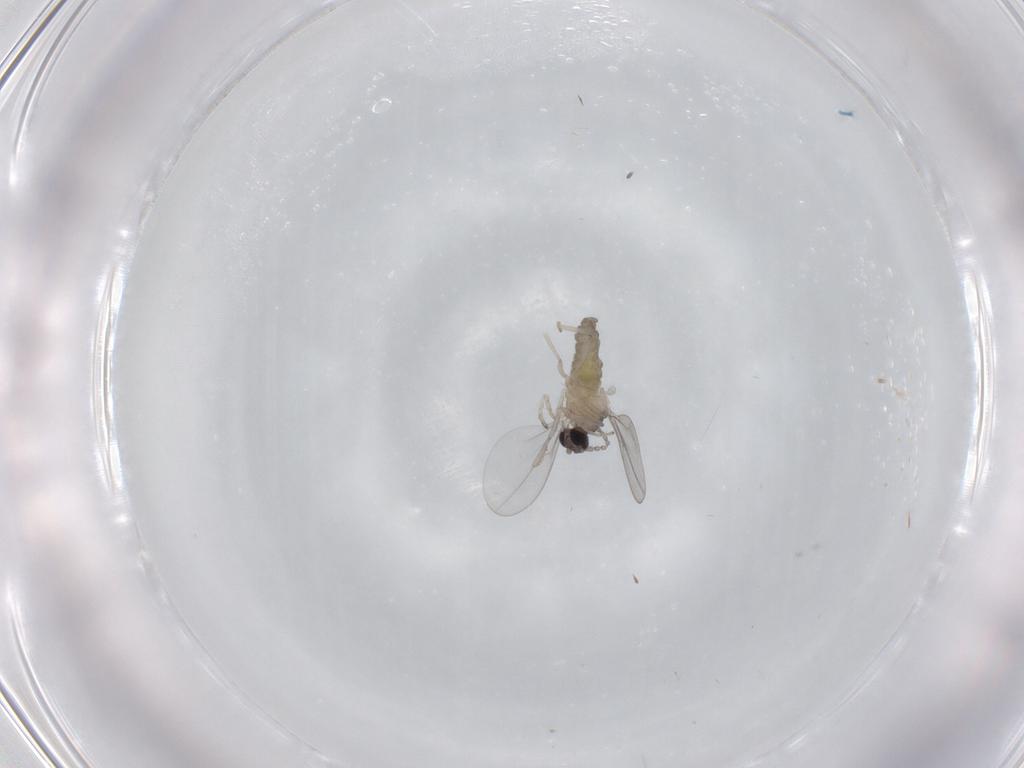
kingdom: Animalia
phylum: Arthropoda
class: Insecta
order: Diptera
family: Cecidomyiidae
